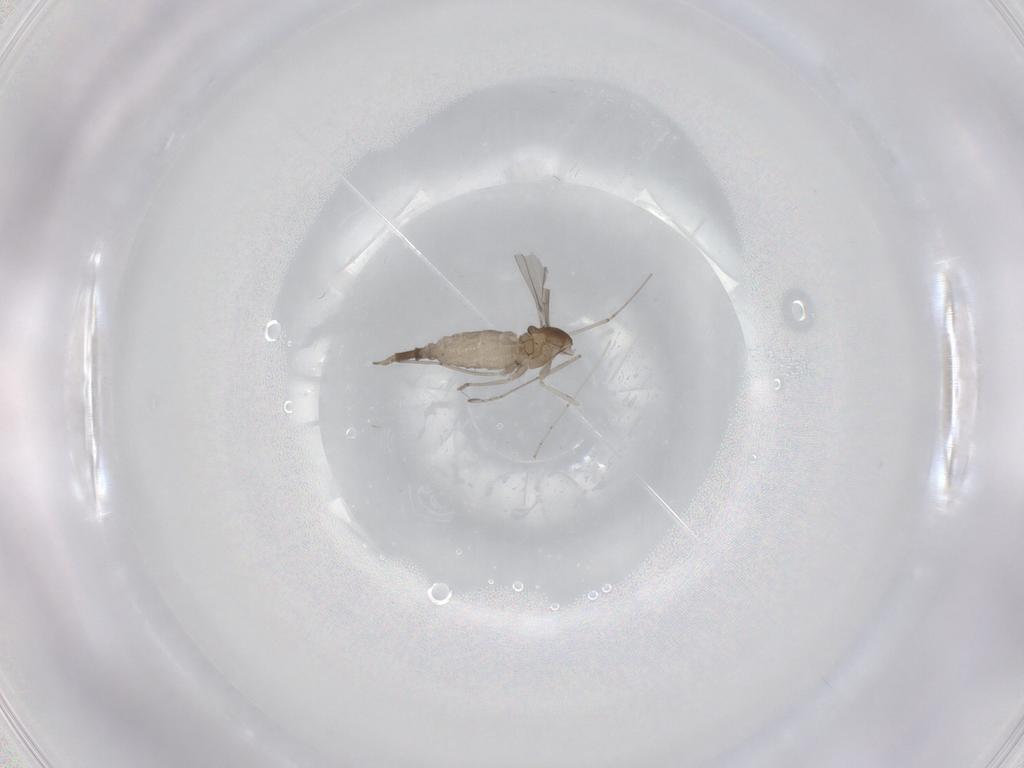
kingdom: Animalia
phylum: Arthropoda
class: Insecta
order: Diptera
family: Cecidomyiidae
